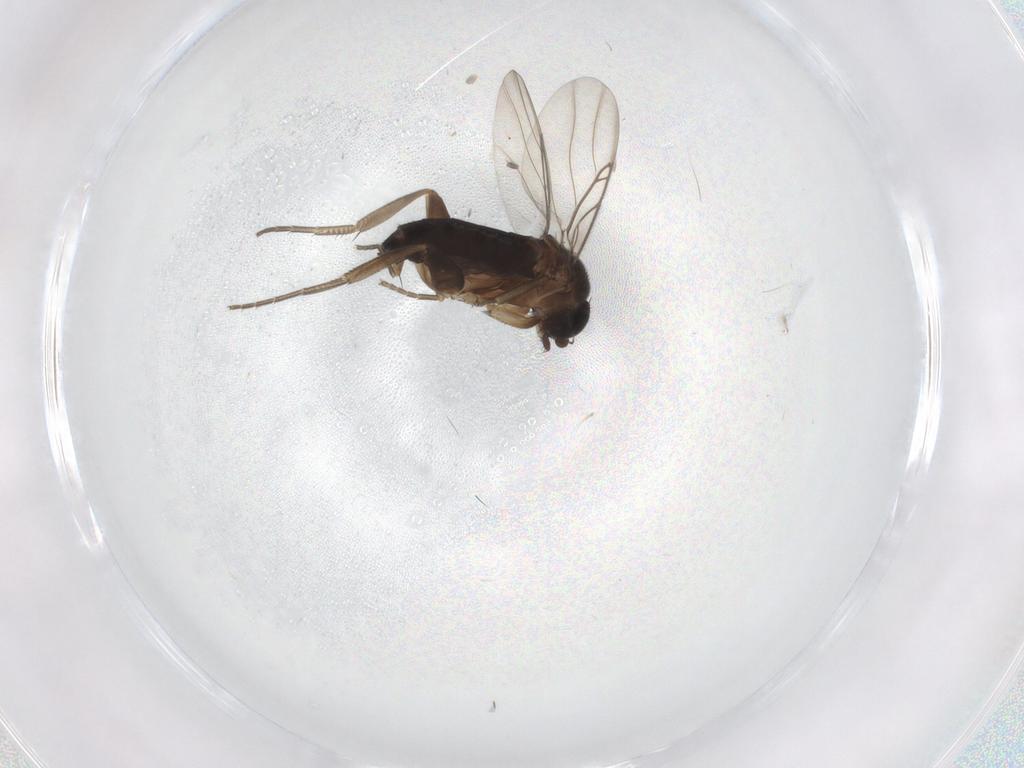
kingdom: Animalia
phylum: Arthropoda
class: Insecta
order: Diptera
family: Phoridae
